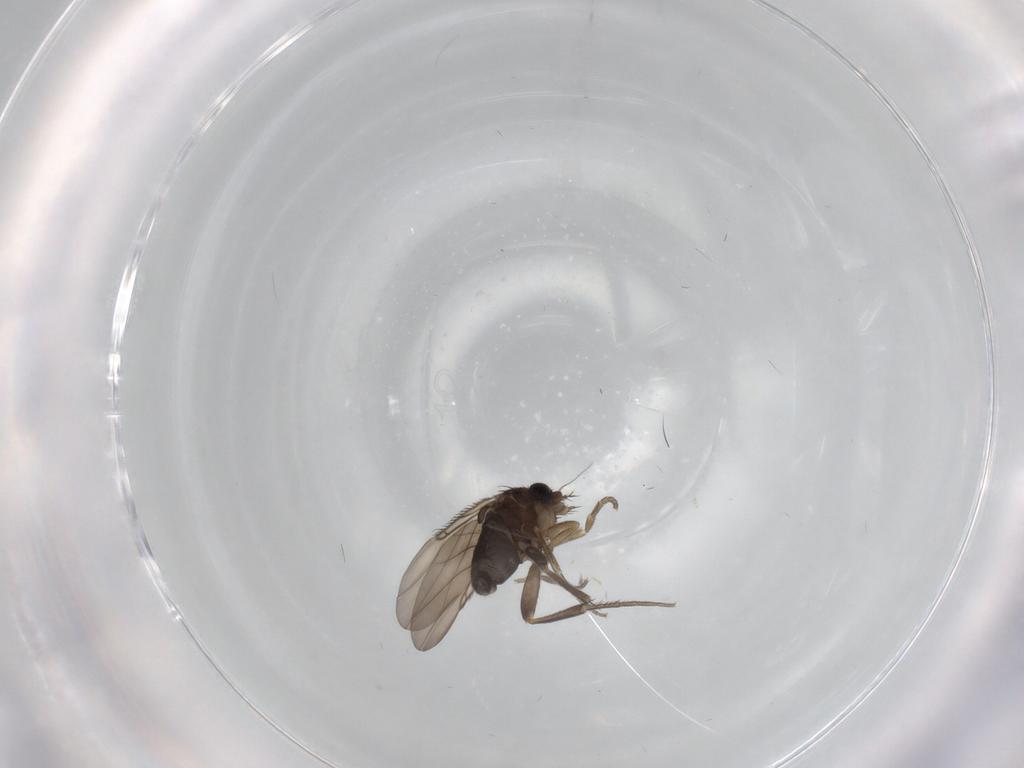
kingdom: Animalia
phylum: Arthropoda
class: Insecta
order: Diptera
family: Phoridae
